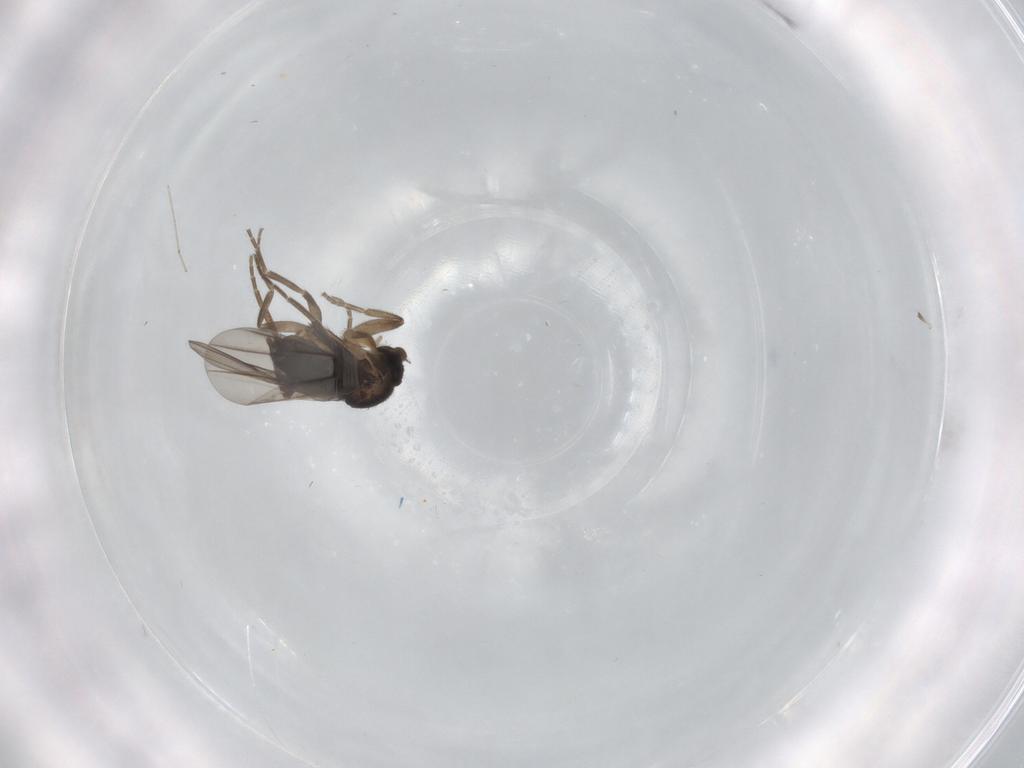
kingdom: Animalia
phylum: Arthropoda
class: Insecta
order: Diptera
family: Phoridae
